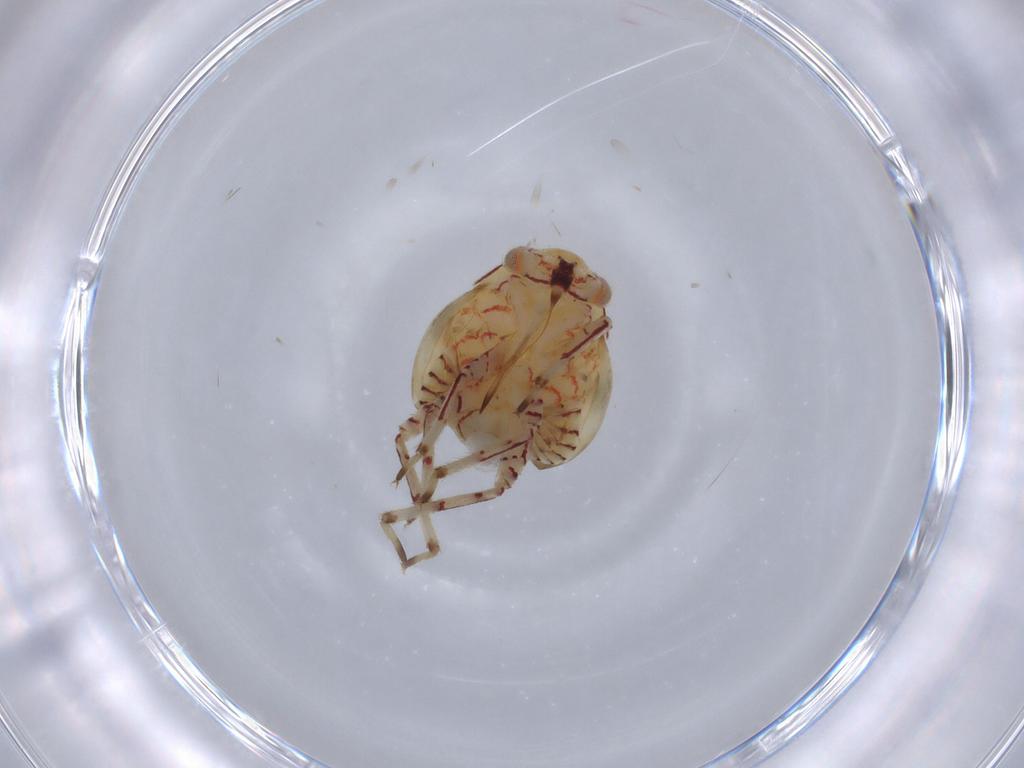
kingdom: Animalia
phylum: Arthropoda
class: Insecta
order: Hemiptera
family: Miridae
